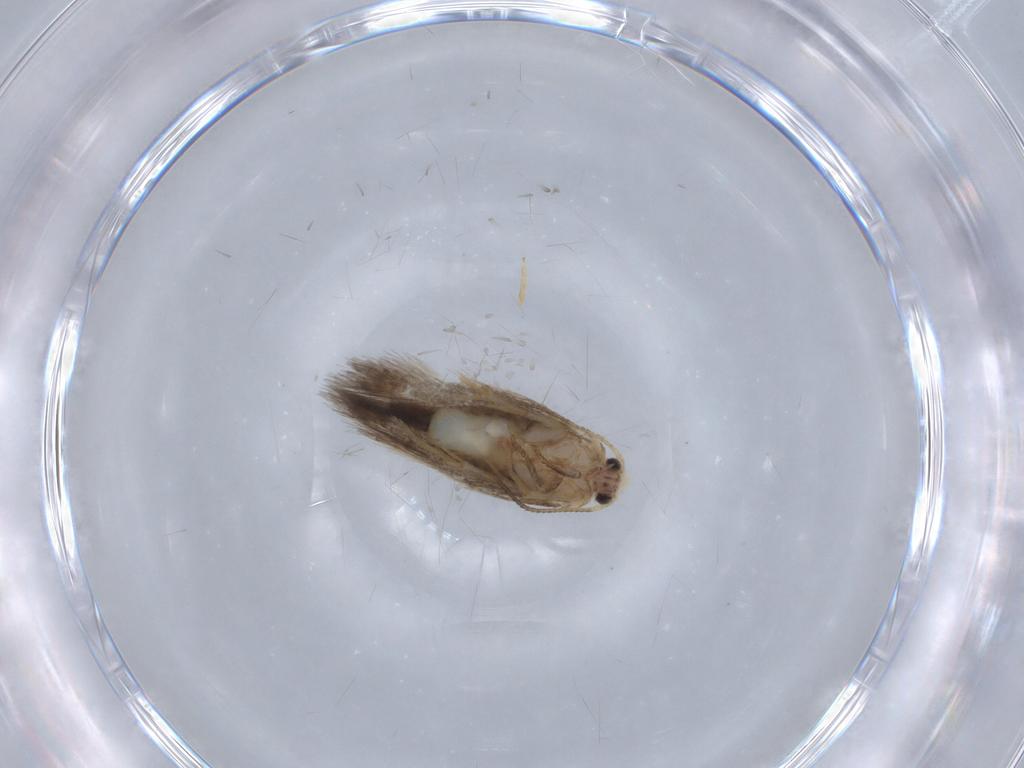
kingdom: Animalia
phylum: Arthropoda
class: Insecta
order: Lepidoptera
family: Nepticulidae
